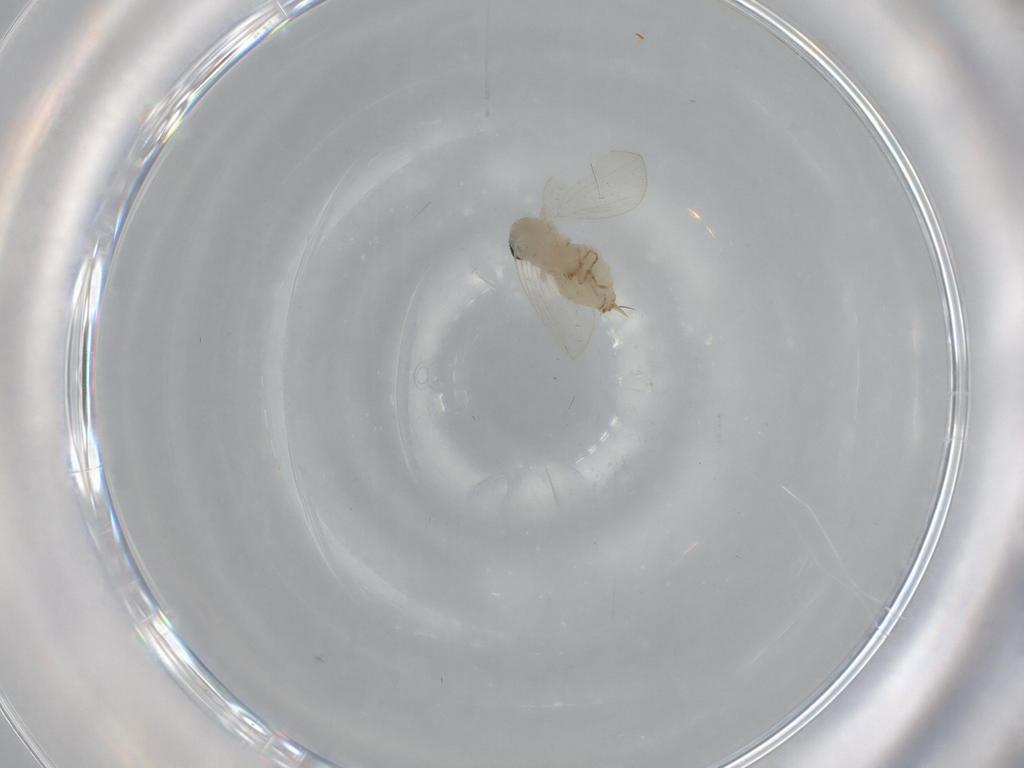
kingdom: Animalia
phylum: Arthropoda
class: Insecta
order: Diptera
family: Psychodidae
